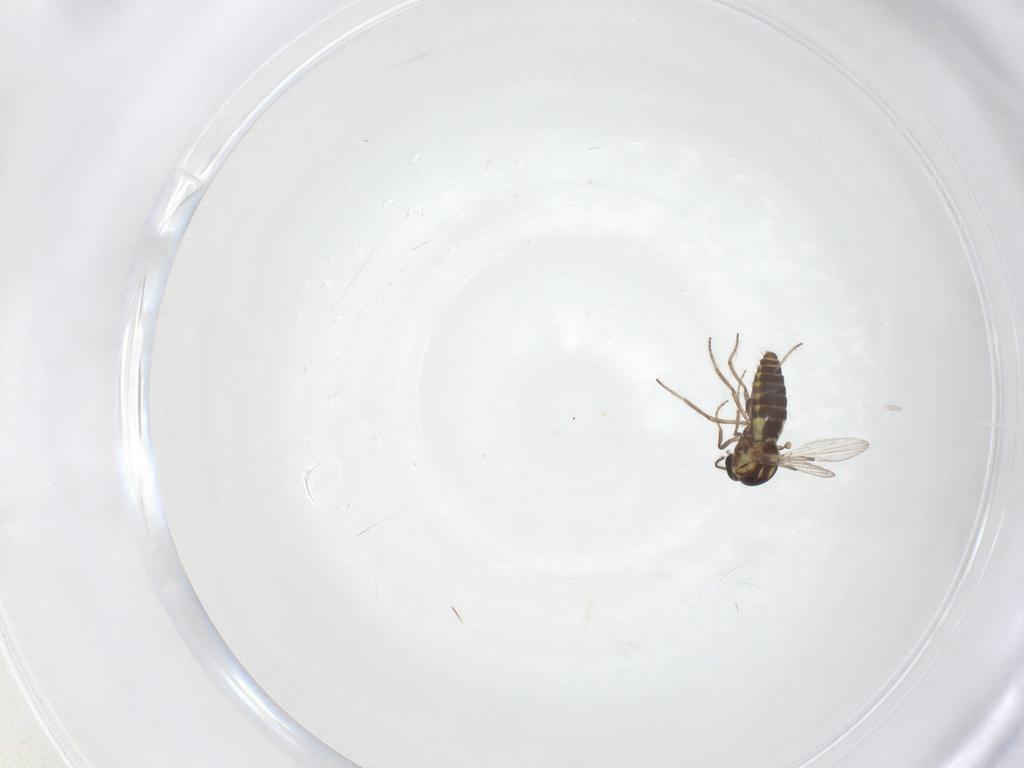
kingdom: Animalia
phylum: Arthropoda
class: Insecta
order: Diptera
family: Ceratopogonidae
